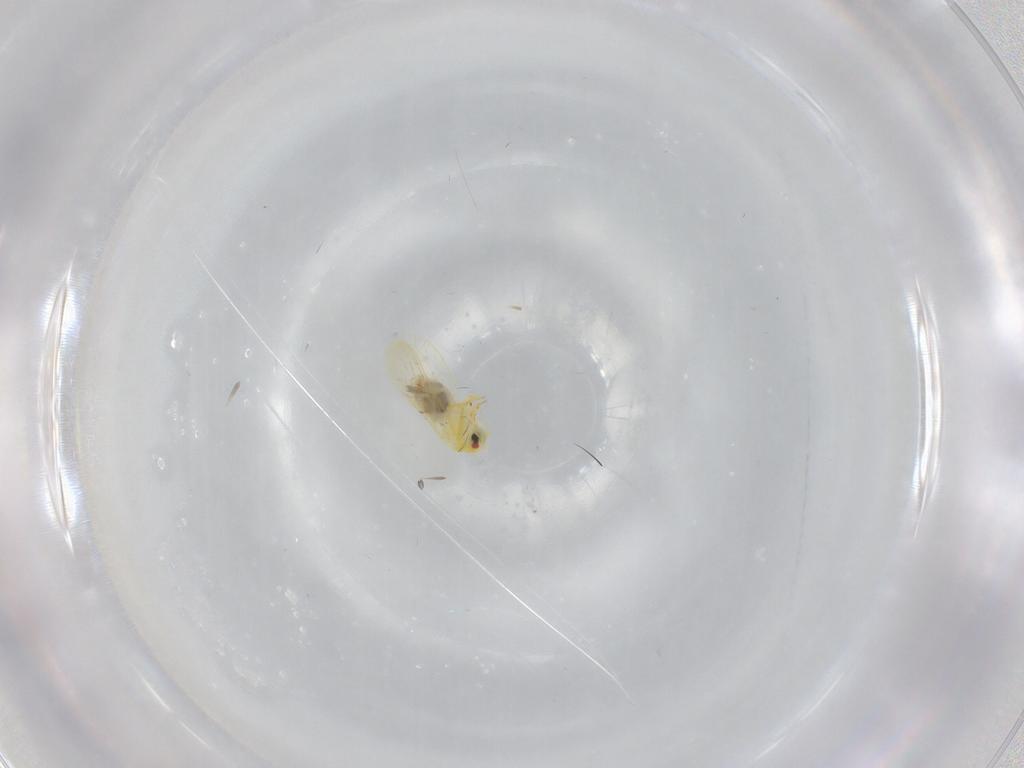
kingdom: Animalia
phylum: Arthropoda
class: Insecta
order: Hemiptera
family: Aleyrodidae
